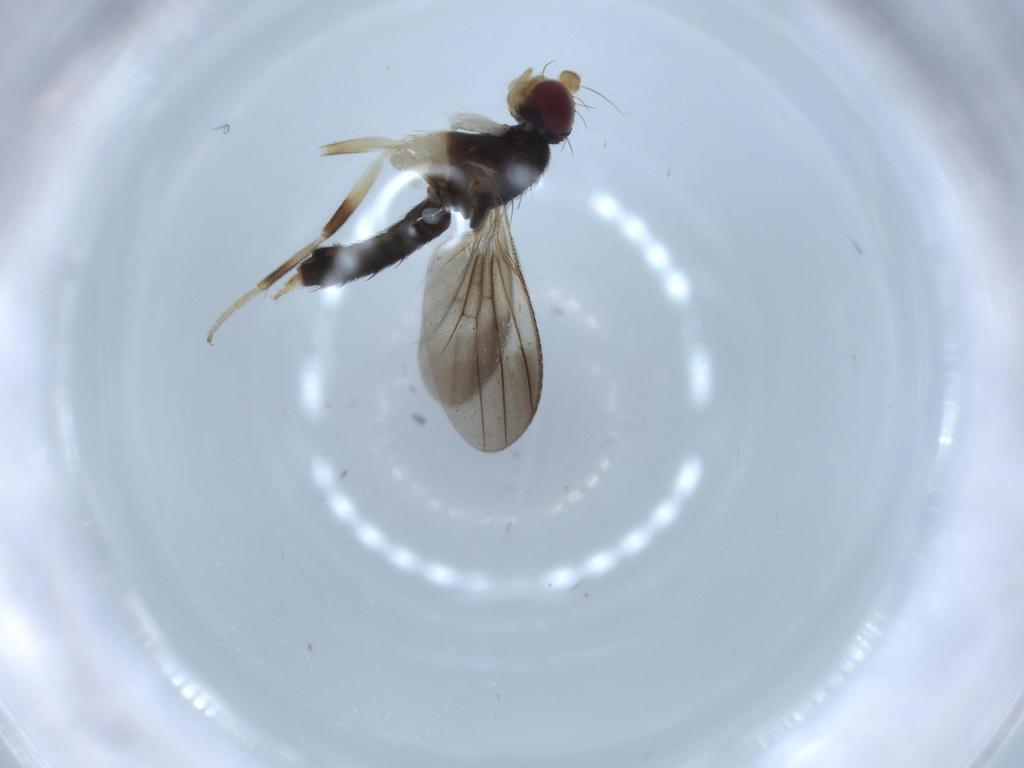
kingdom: Animalia
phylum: Arthropoda
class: Insecta
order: Diptera
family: Clusiidae
